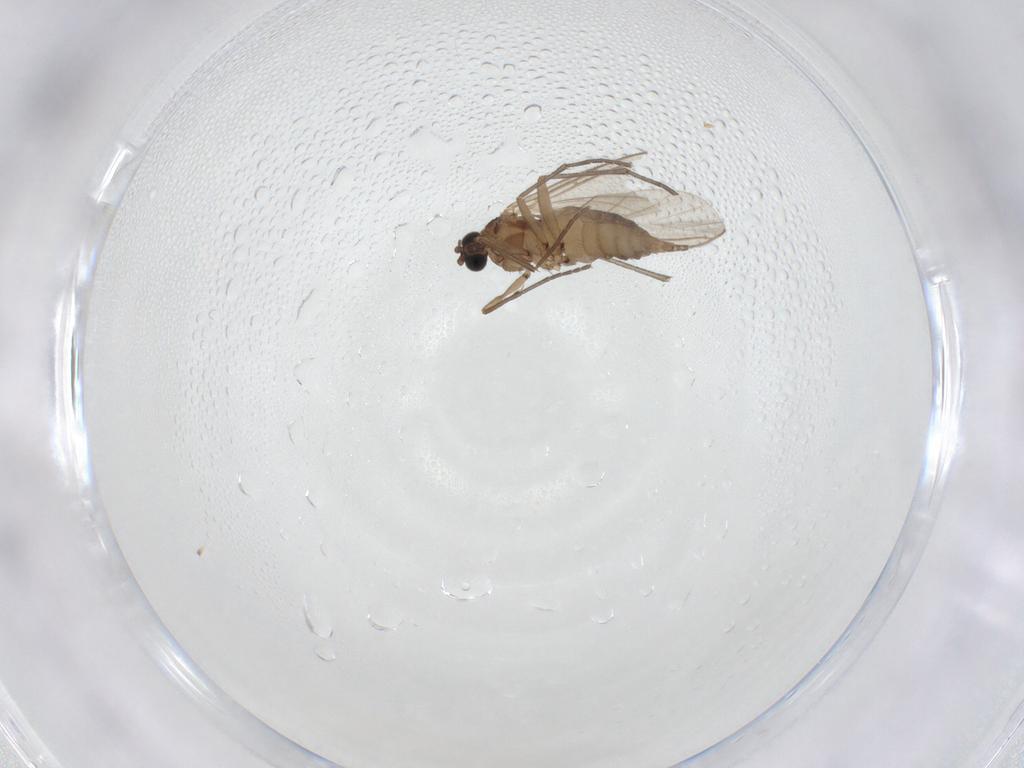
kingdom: Animalia
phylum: Arthropoda
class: Insecta
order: Diptera
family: Sciaridae
